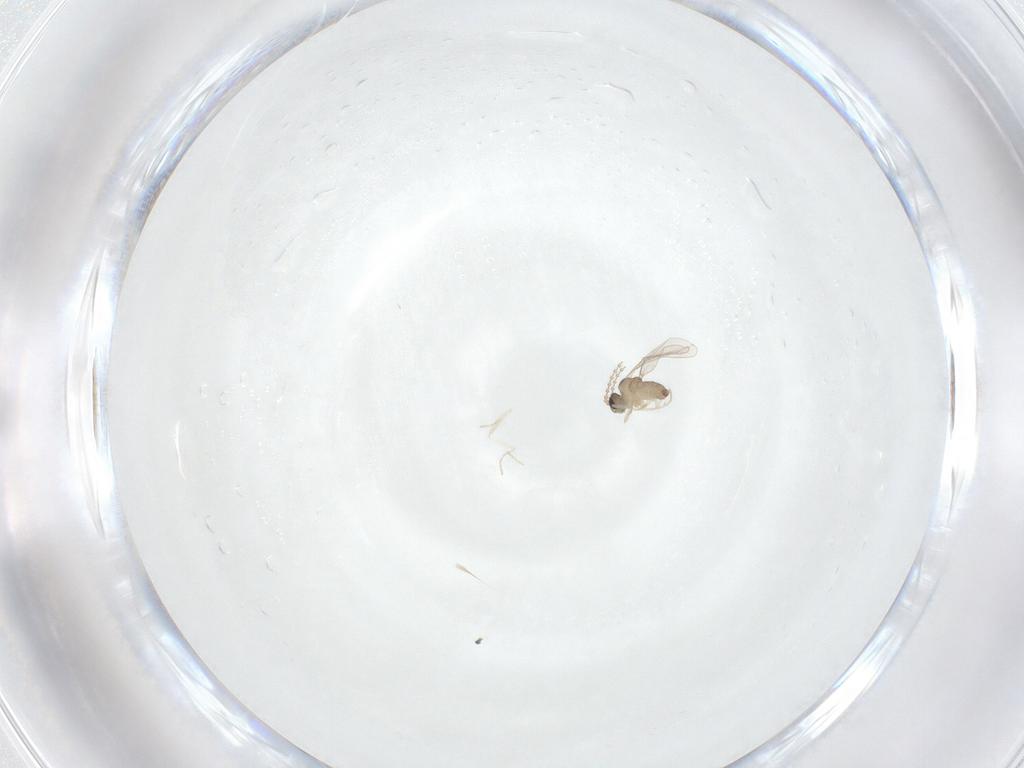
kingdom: Animalia
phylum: Arthropoda
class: Insecta
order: Diptera
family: Cecidomyiidae
